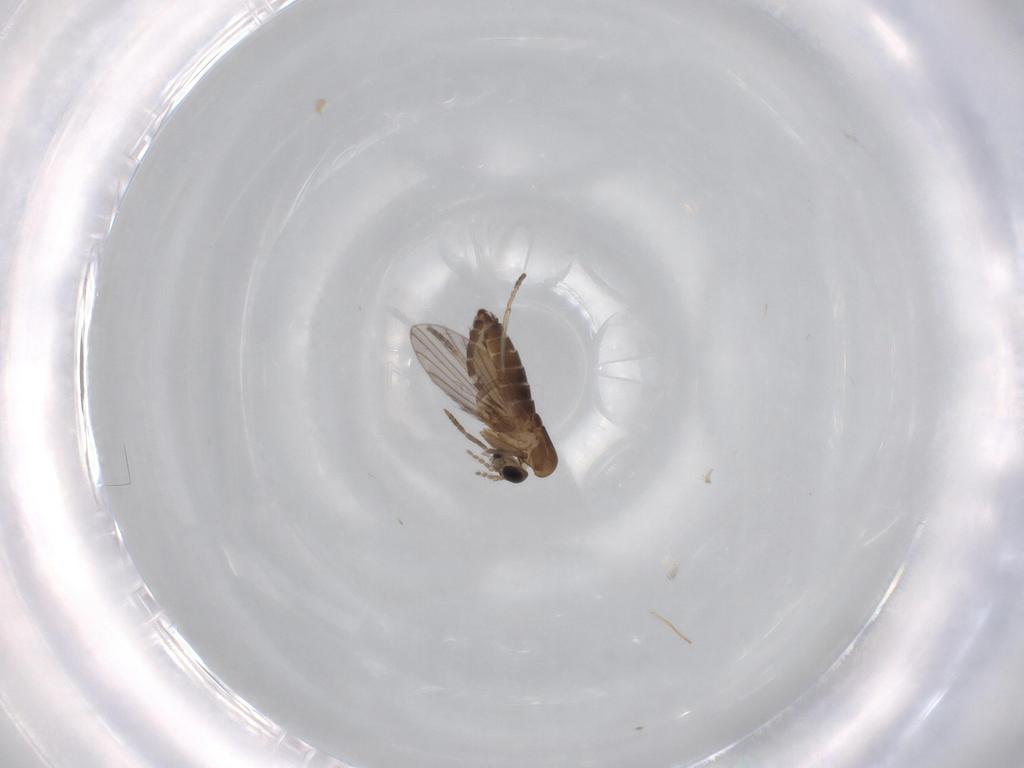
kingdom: Animalia
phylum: Arthropoda
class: Insecta
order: Diptera
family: Psychodidae
